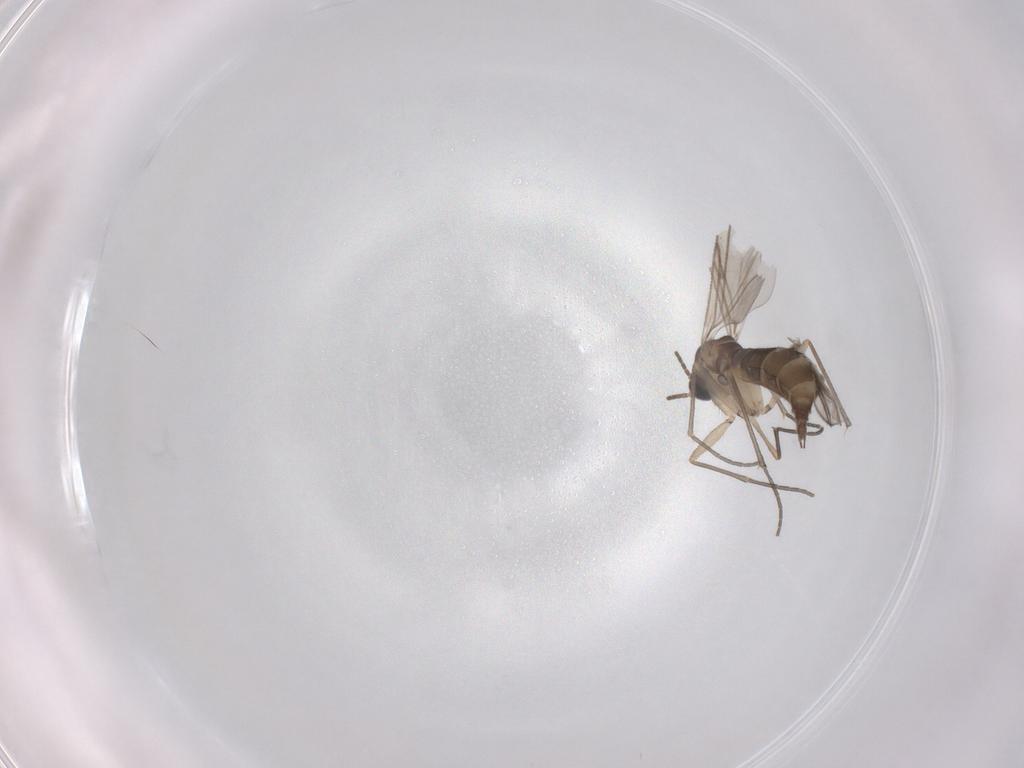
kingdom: Animalia
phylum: Arthropoda
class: Insecta
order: Diptera
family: Sciaridae
